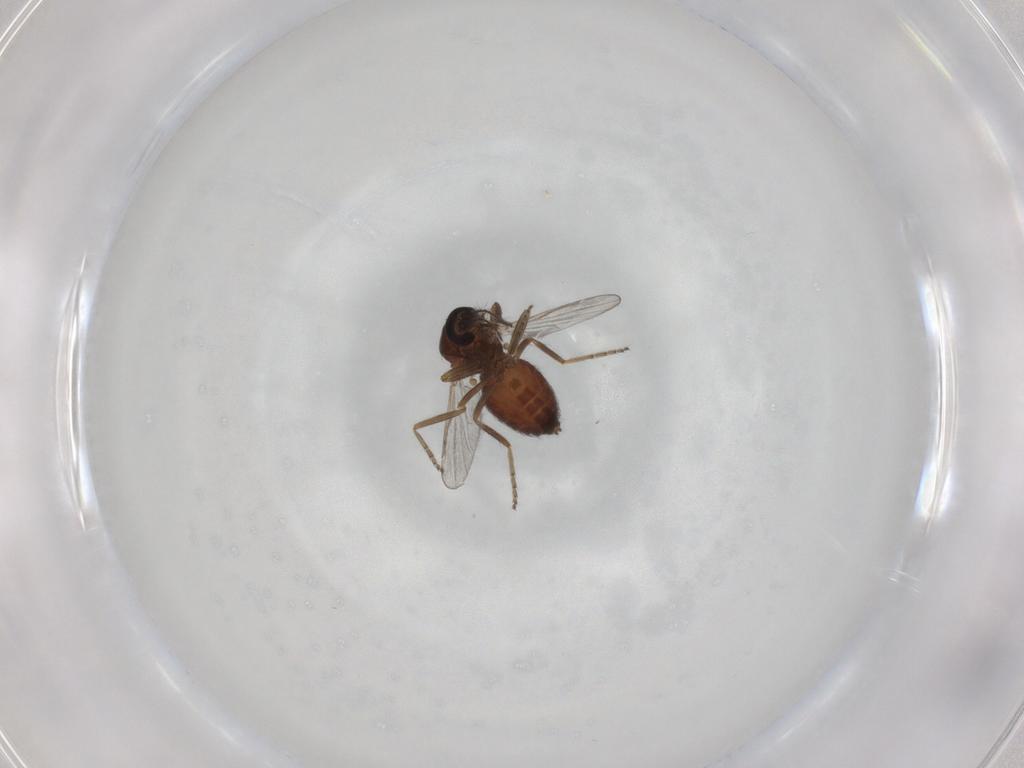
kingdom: Animalia
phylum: Arthropoda
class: Insecta
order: Diptera
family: Ceratopogonidae
